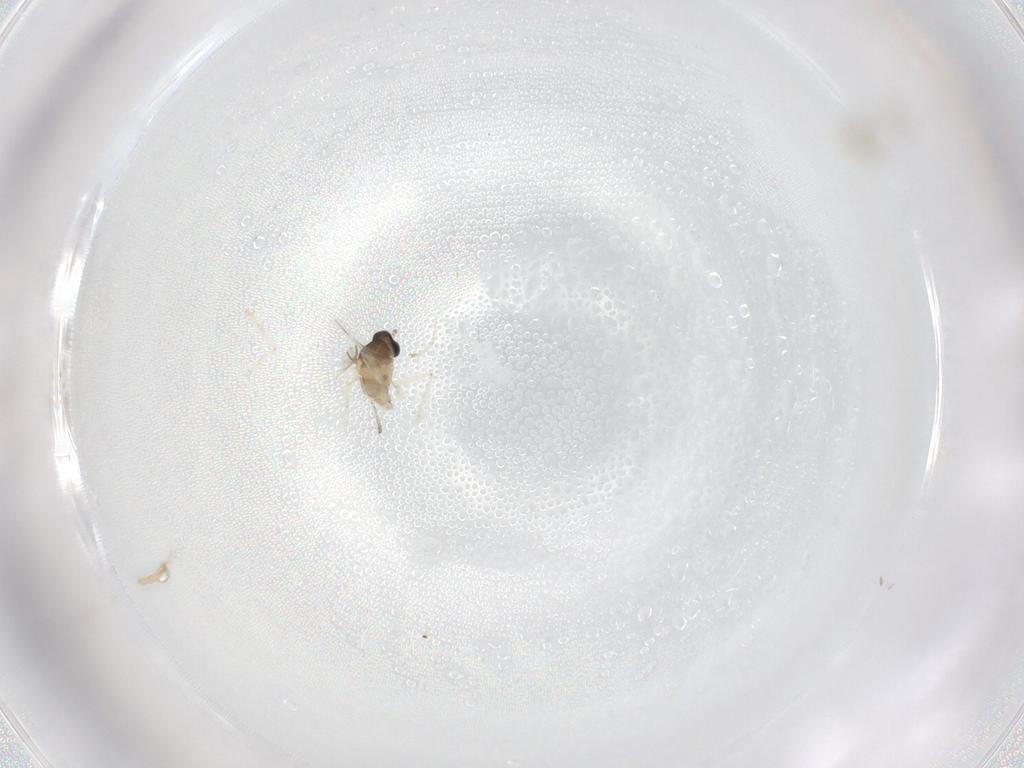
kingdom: Animalia
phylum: Arthropoda
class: Insecta
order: Diptera
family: Cecidomyiidae
